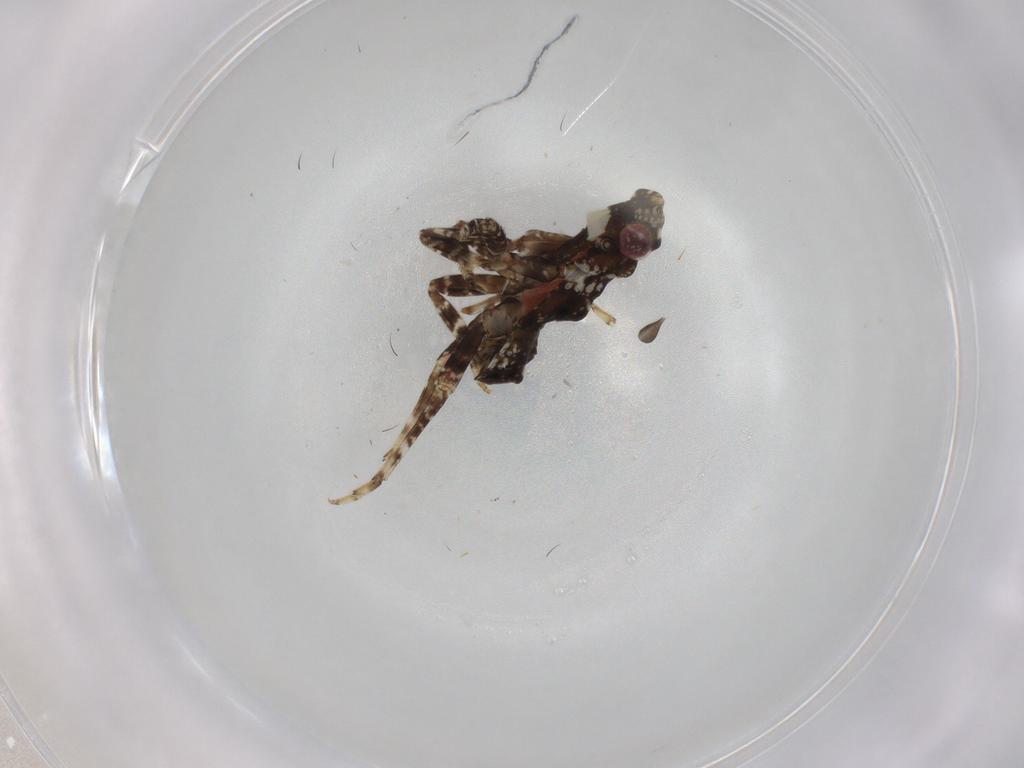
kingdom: Animalia
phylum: Arthropoda
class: Insecta
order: Hemiptera
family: Fulgoridae
